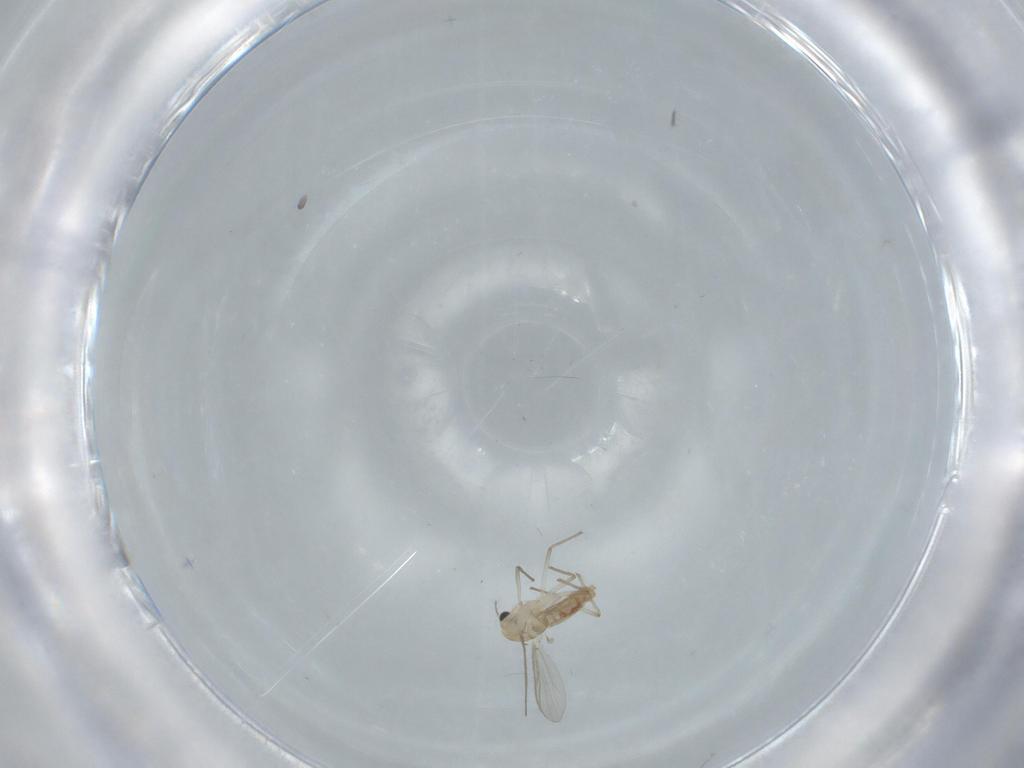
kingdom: Animalia
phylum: Arthropoda
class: Insecta
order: Diptera
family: Chironomidae
